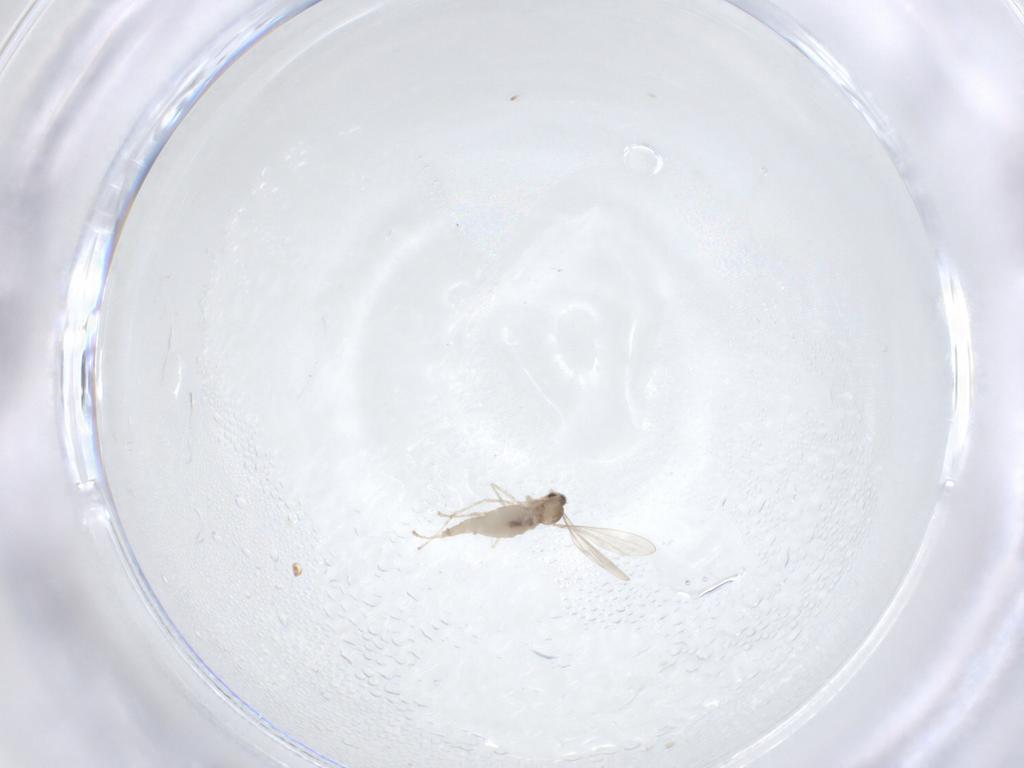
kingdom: Animalia
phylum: Arthropoda
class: Insecta
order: Diptera
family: Cecidomyiidae
